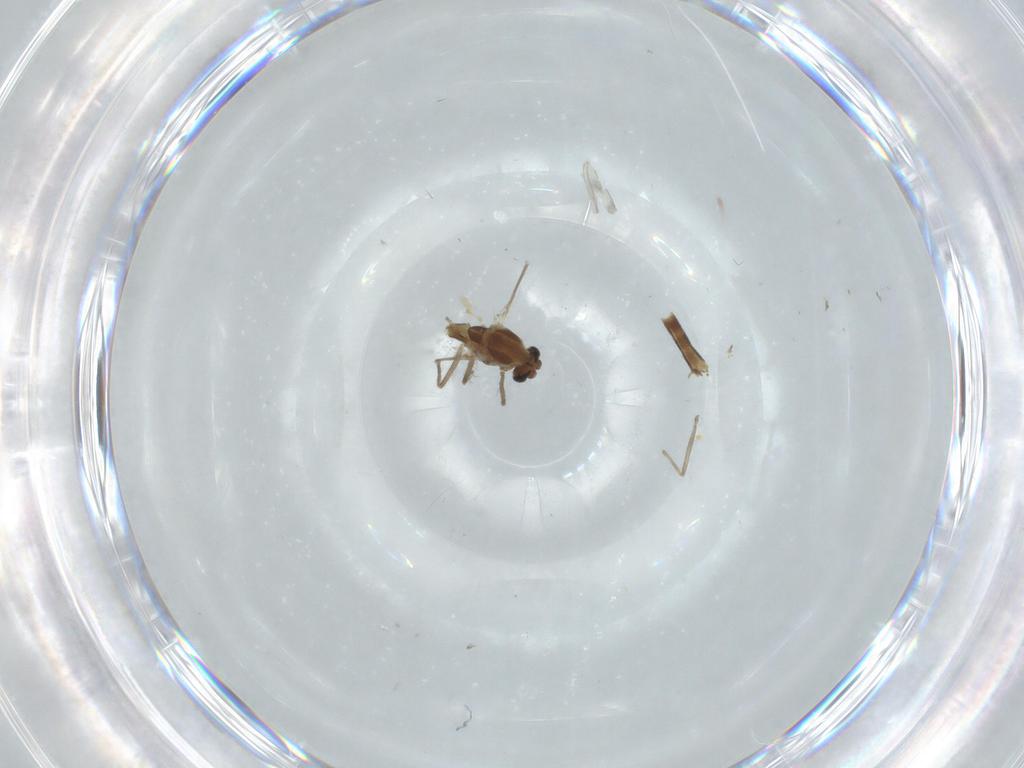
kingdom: Animalia
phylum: Arthropoda
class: Insecta
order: Diptera
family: Chironomidae
